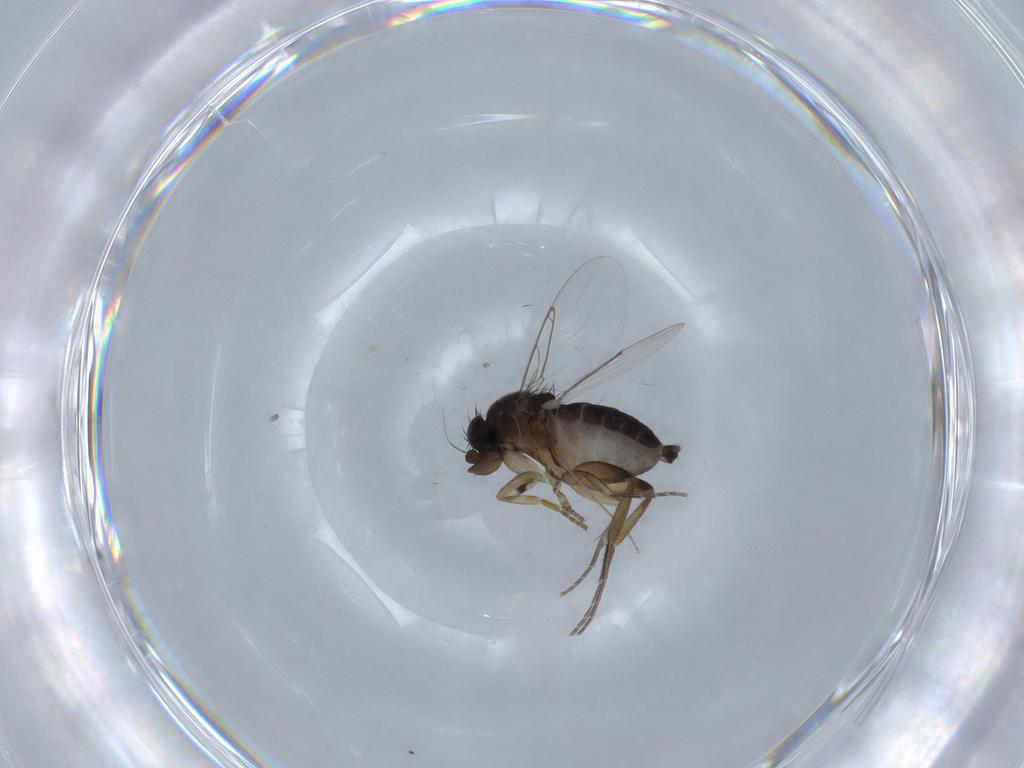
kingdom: Animalia
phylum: Arthropoda
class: Insecta
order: Diptera
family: Phoridae
